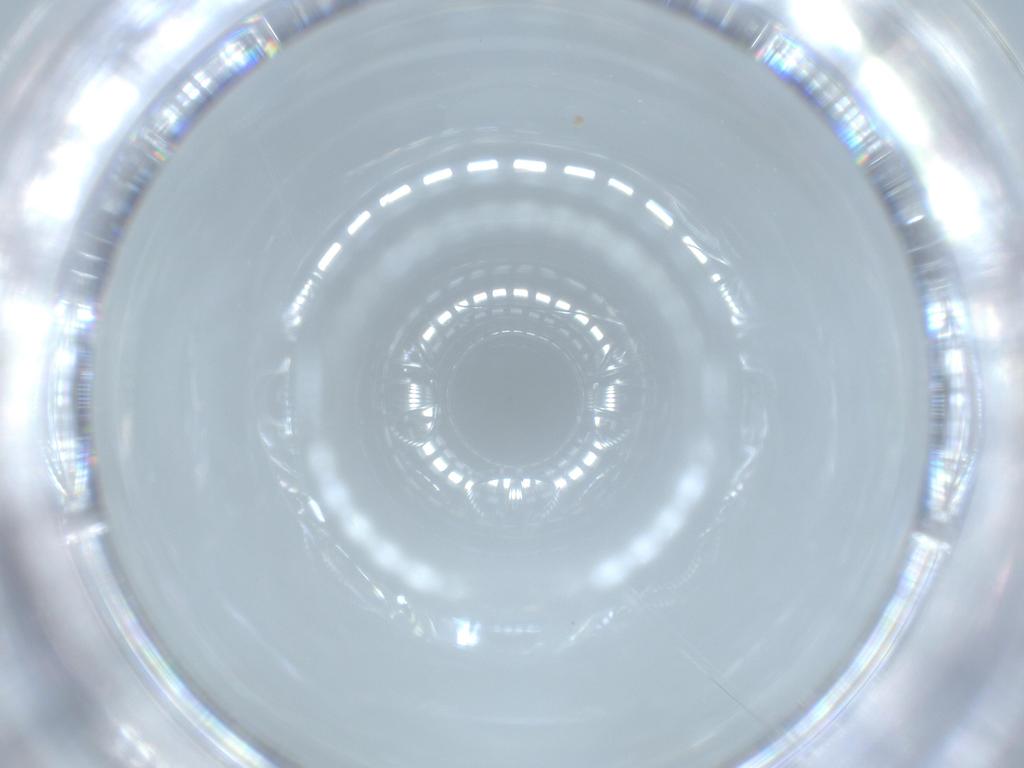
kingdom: Animalia
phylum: Arthropoda
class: Insecta
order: Diptera
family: Cecidomyiidae
